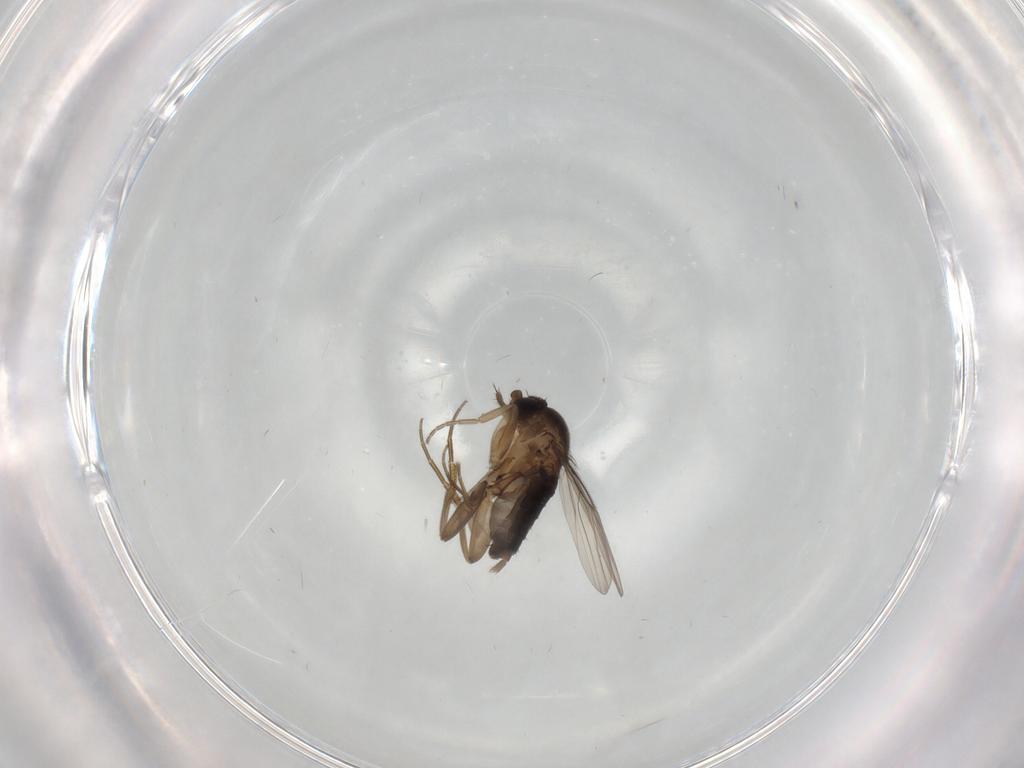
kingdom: Animalia
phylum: Arthropoda
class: Insecta
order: Diptera
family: Phoridae
